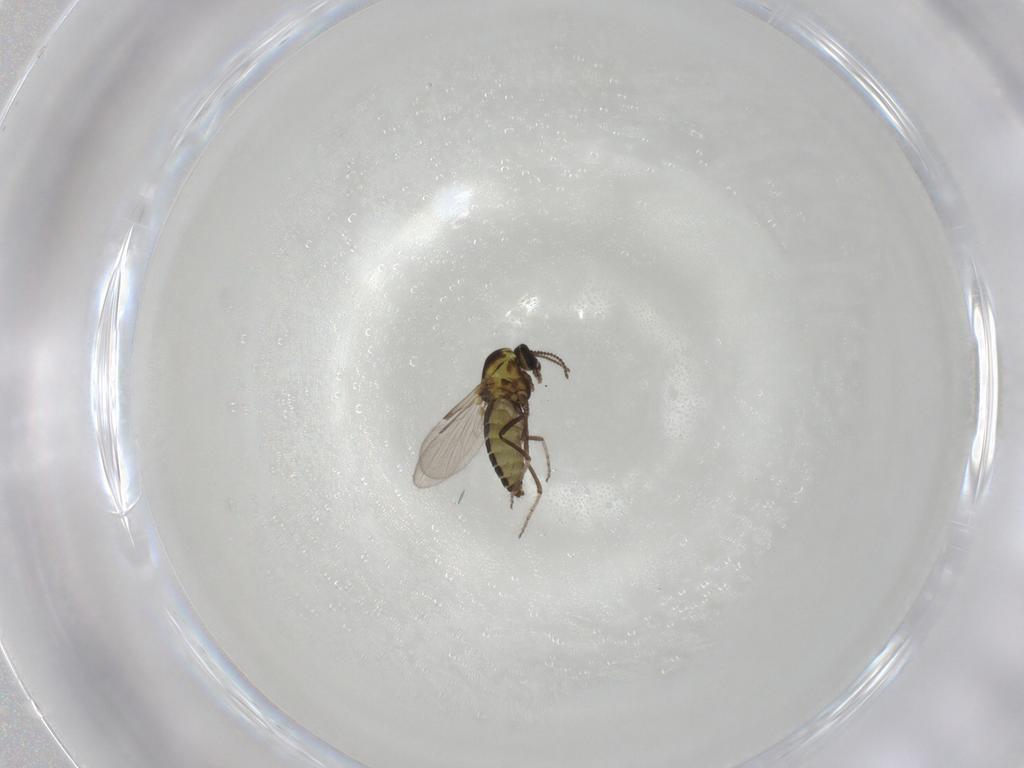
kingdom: Animalia
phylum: Arthropoda
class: Insecta
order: Diptera
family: Ceratopogonidae
